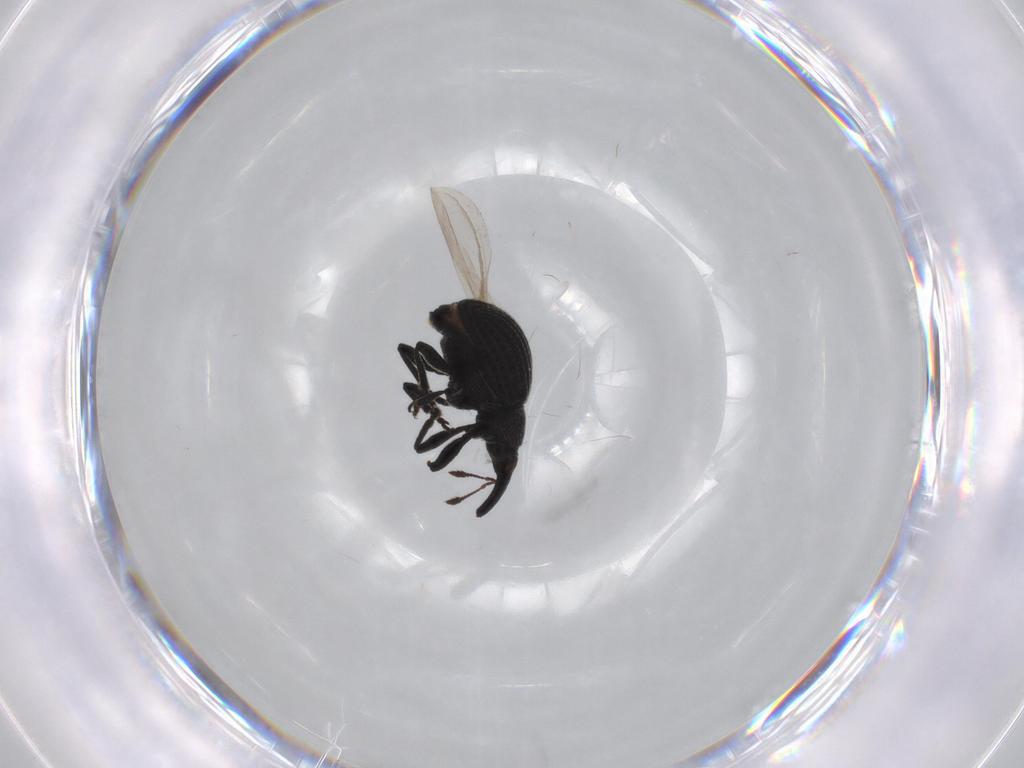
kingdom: Animalia
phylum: Arthropoda
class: Insecta
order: Coleoptera
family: Brentidae
